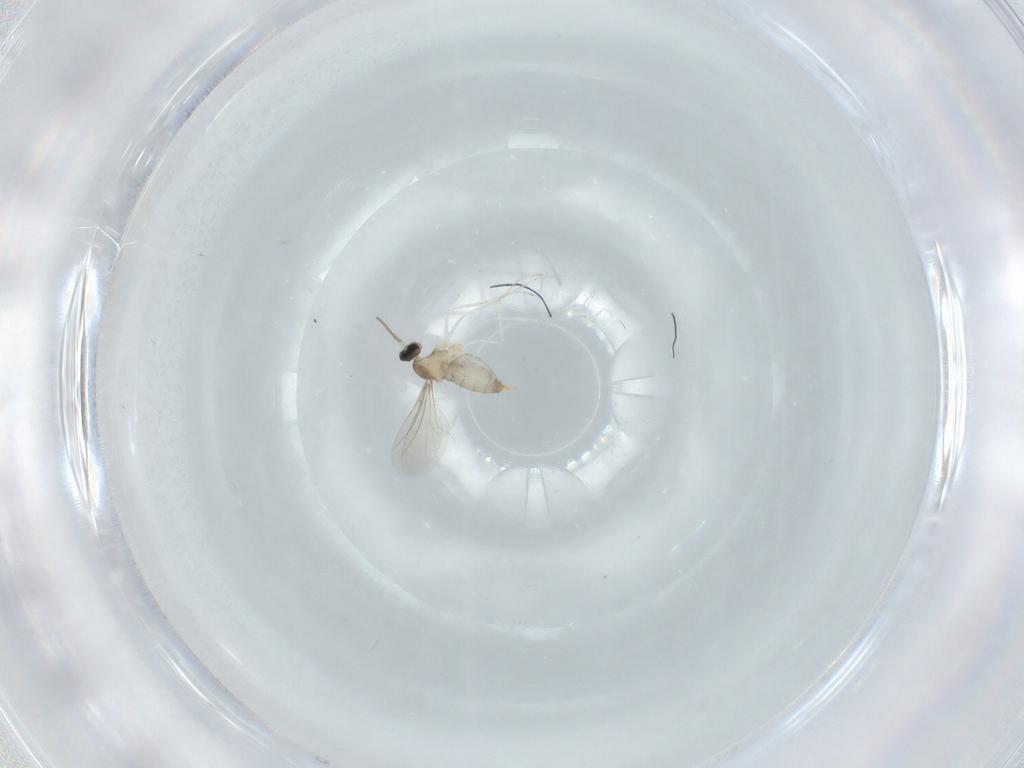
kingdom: Animalia
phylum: Arthropoda
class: Insecta
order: Diptera
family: Cecidomyiidae
